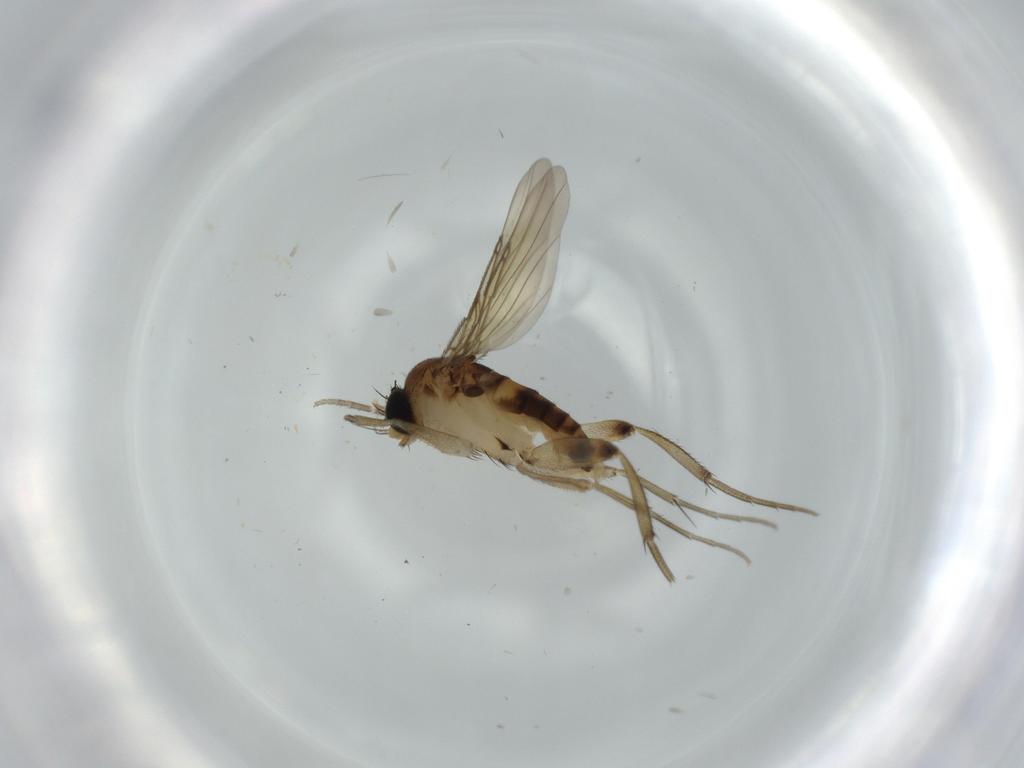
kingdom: Animalia
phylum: Arthropoda
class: Insecta
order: Diptera
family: Phoridae
